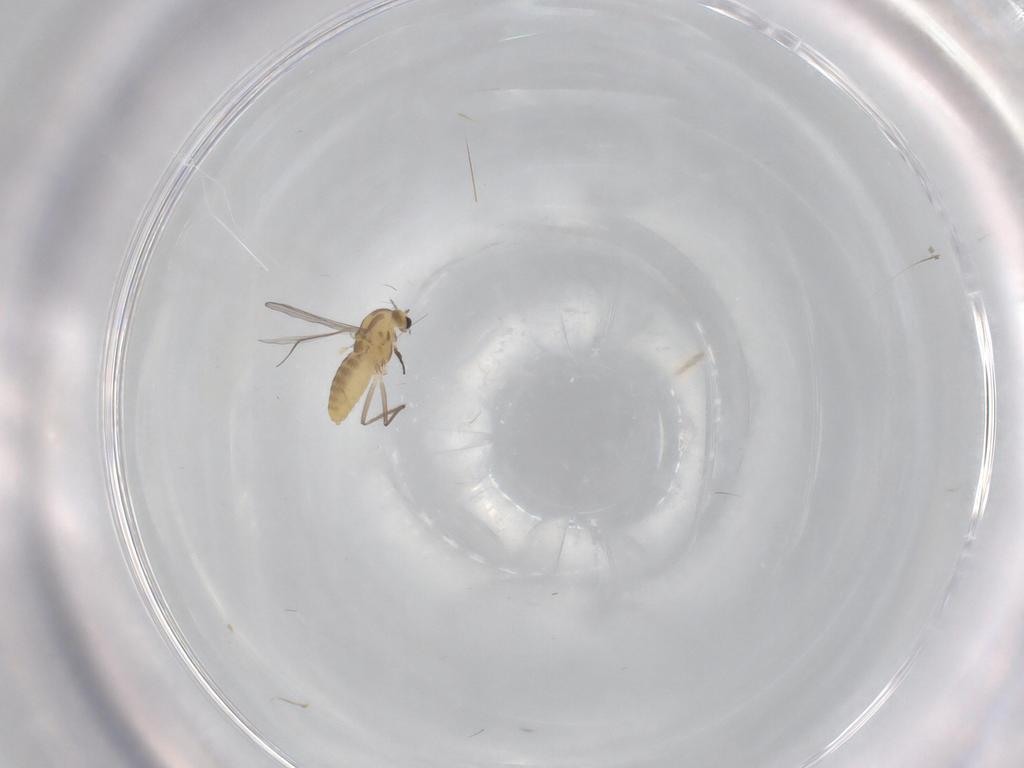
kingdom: Animalia
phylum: Arthropoda
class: Insecta
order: Diptera
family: Chironomidae
